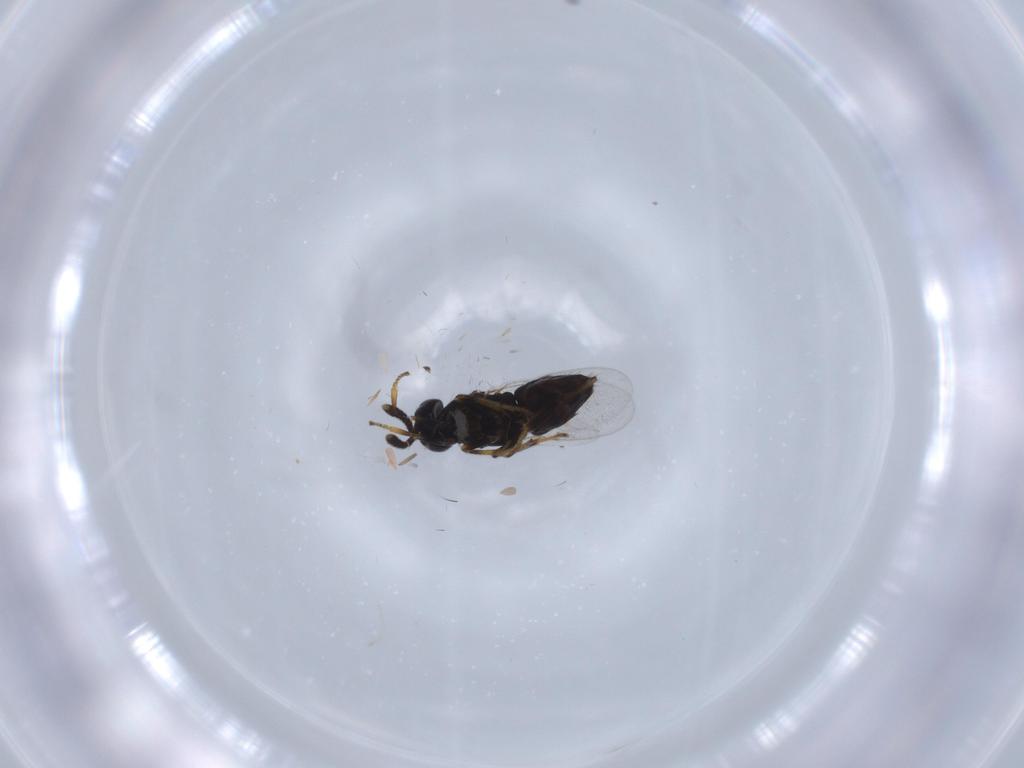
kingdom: Animalia
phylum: Arthropoda
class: Insecta
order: Hymenoptera
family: Encyrtidae
